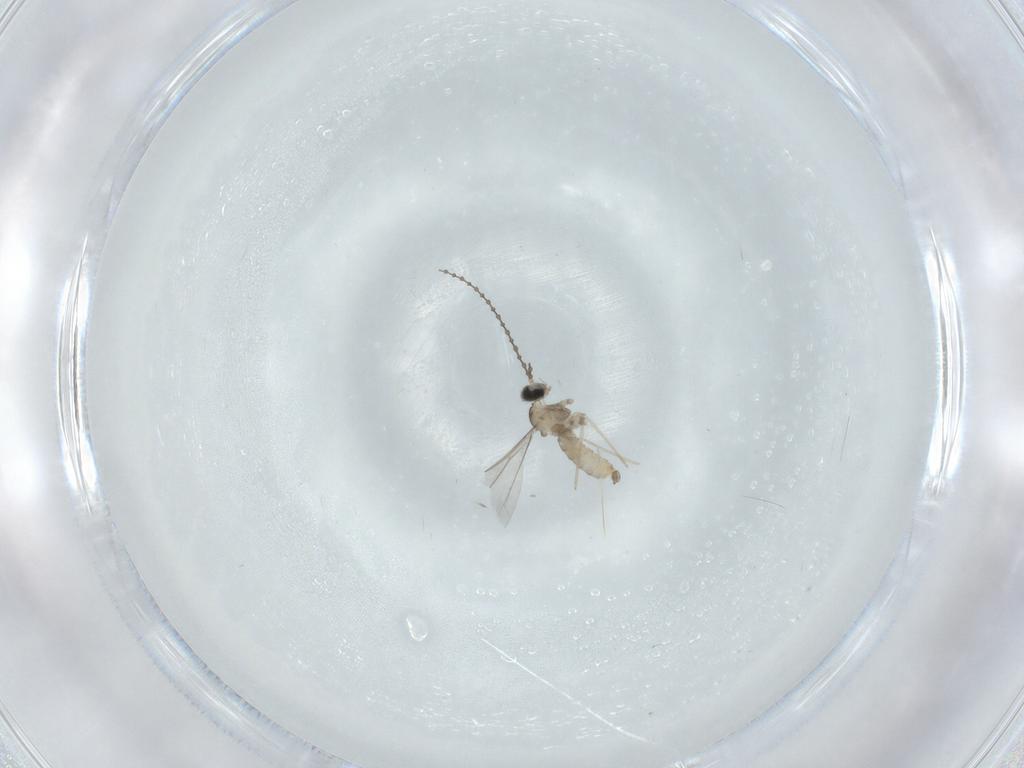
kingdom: Animalia
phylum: Arthropoda
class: Insecta
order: Diptera
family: Cecidomyiidae
